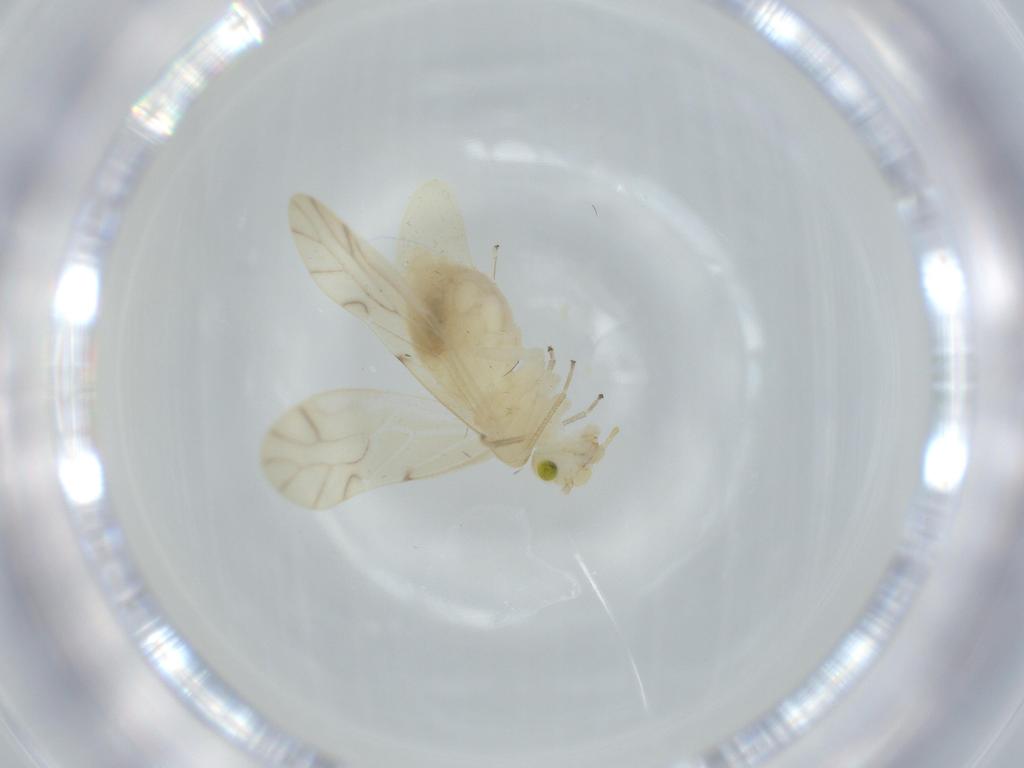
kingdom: Animalia
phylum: Arthropoda
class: Insecta
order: Psocodea
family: Caeciliusidae
